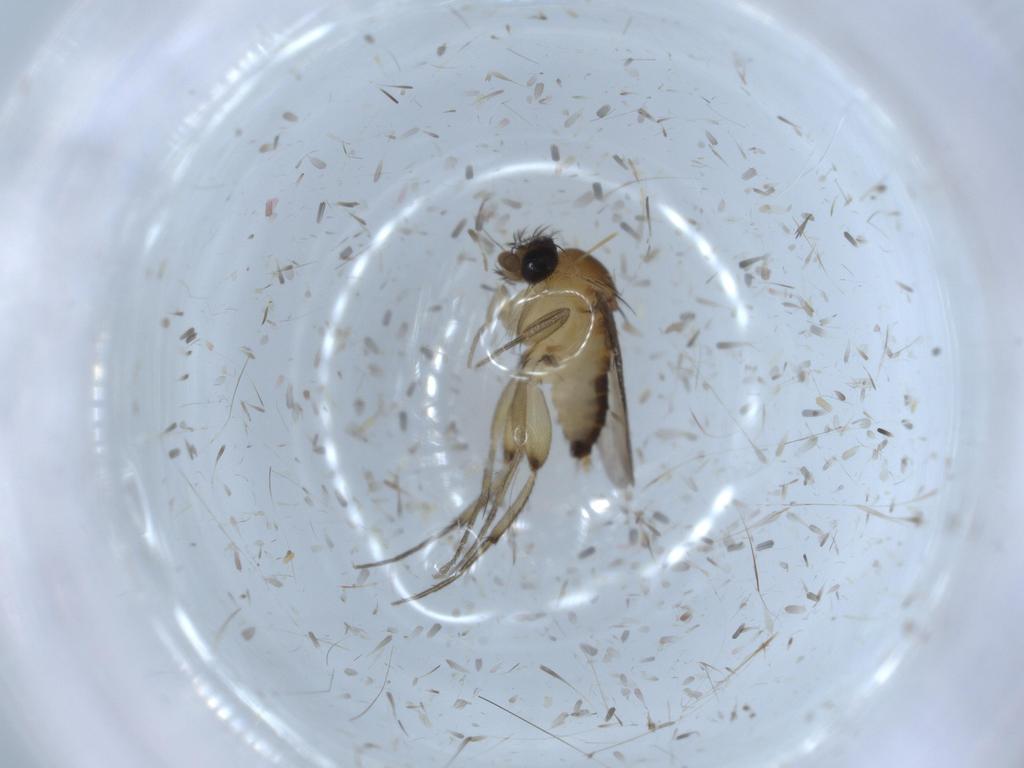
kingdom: Animalia
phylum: Arthropoda
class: Insecta
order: Diptera
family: Phoridae
